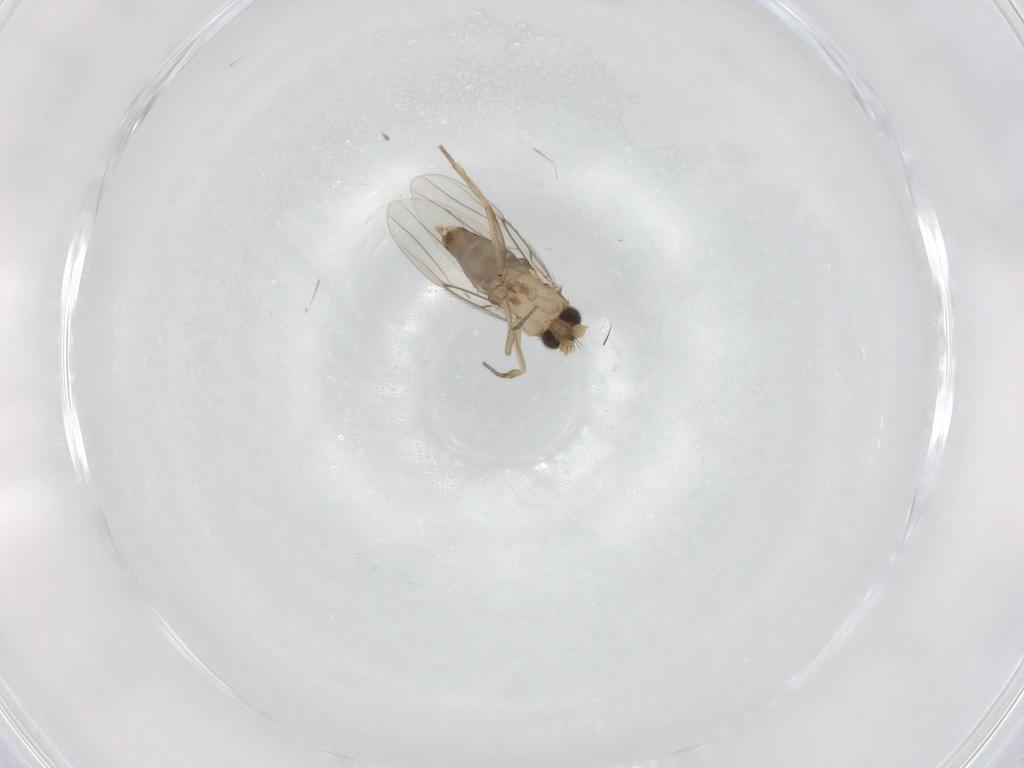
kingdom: Animalia
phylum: Arthropoda
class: Insecta
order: Diptera
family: Phoridae
